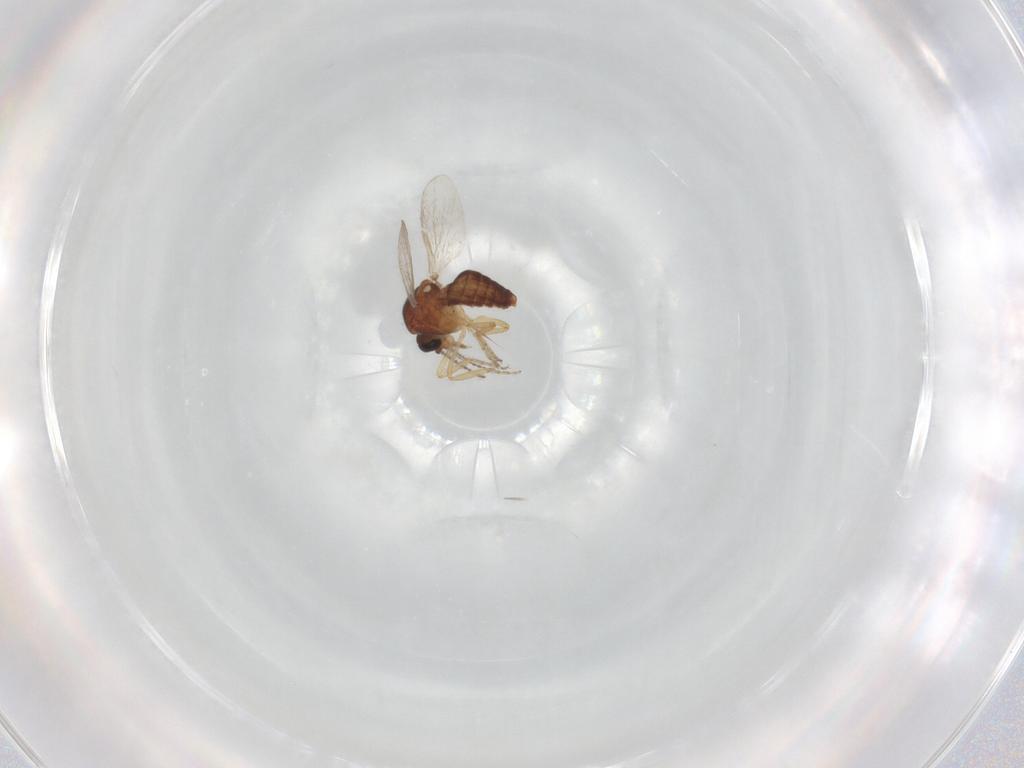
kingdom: Animalia
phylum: Arthropoda
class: Insecta
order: Diptera
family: Ceratopogonidae
